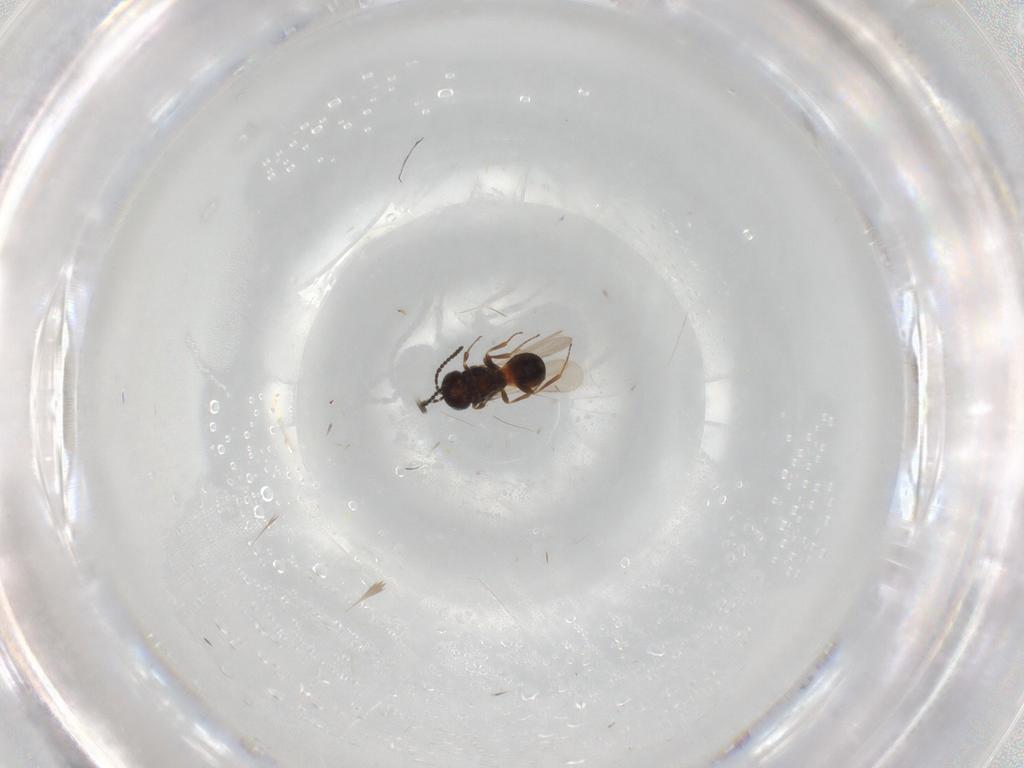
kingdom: Animalia
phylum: Arthropoda
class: Insecta
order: Hymenoptera
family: Scelionidae
